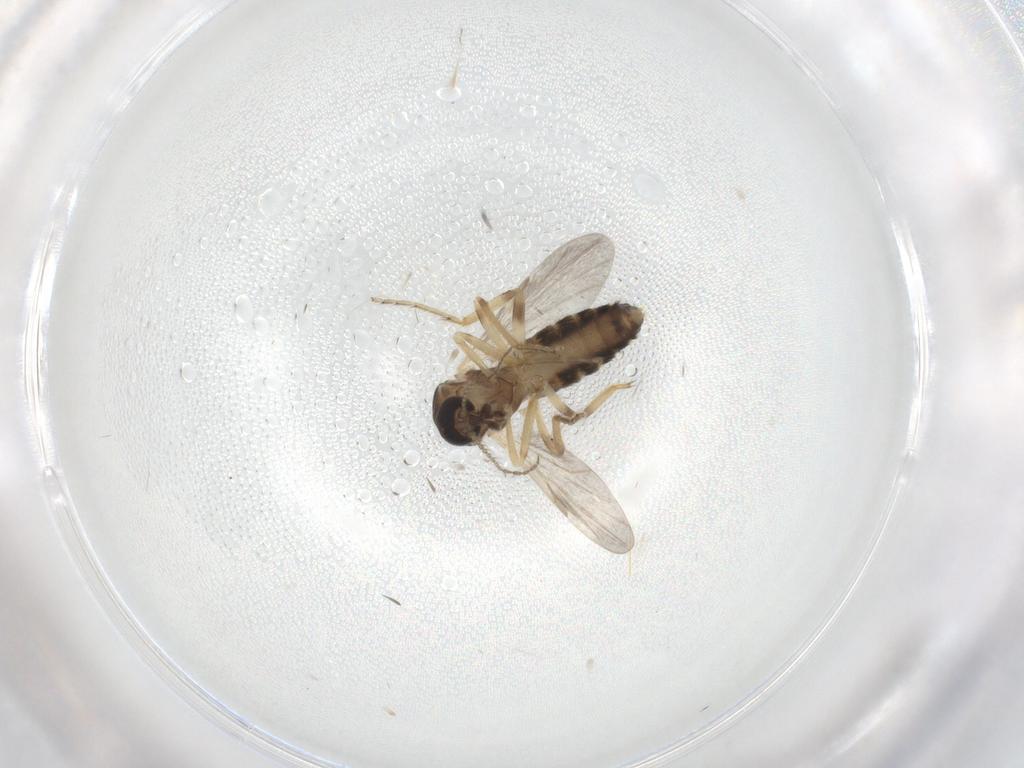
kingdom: Animalia
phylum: Arthropoda
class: Insecta
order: Diptera
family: Ceratopogonidae
